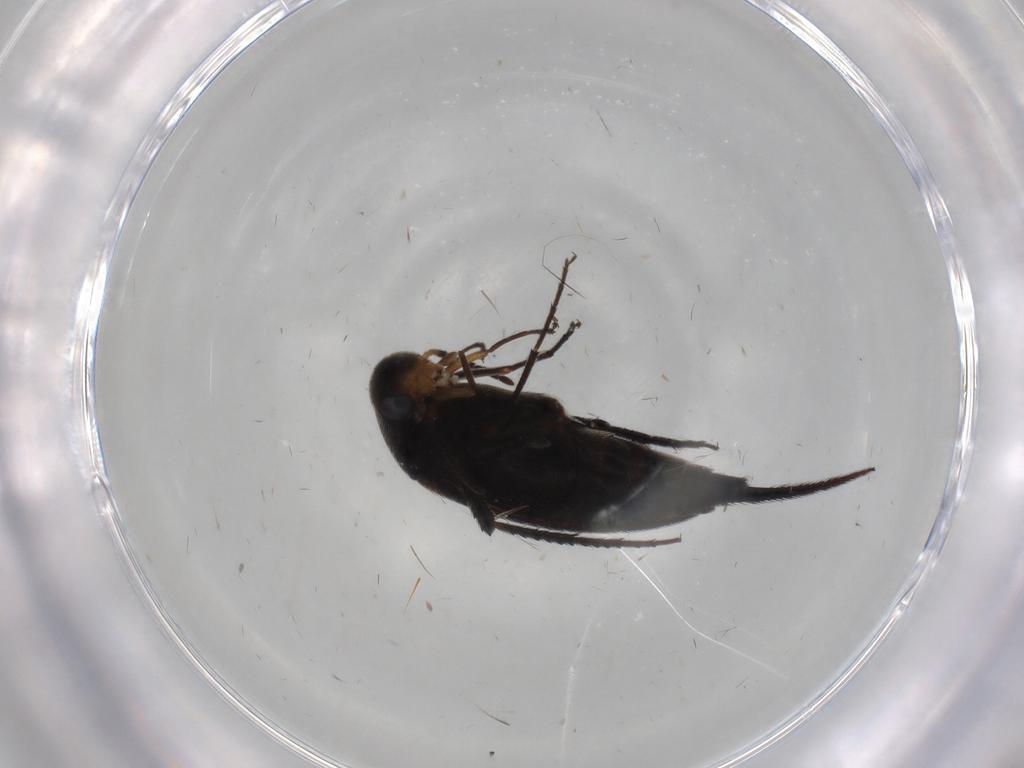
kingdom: Animalia
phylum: Arthropoda
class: Insecta
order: Coleoptera
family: Mordellidae
